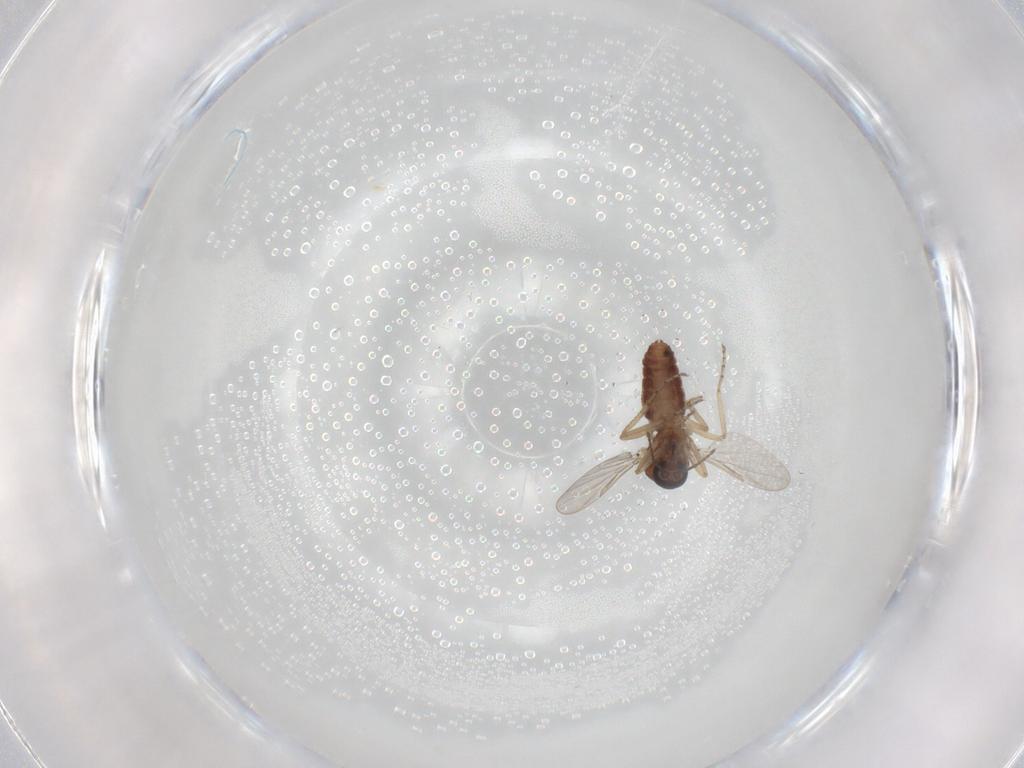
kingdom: Animalia
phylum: Arthropoda
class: Insecta
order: Diptera
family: Ceratopogonidae
